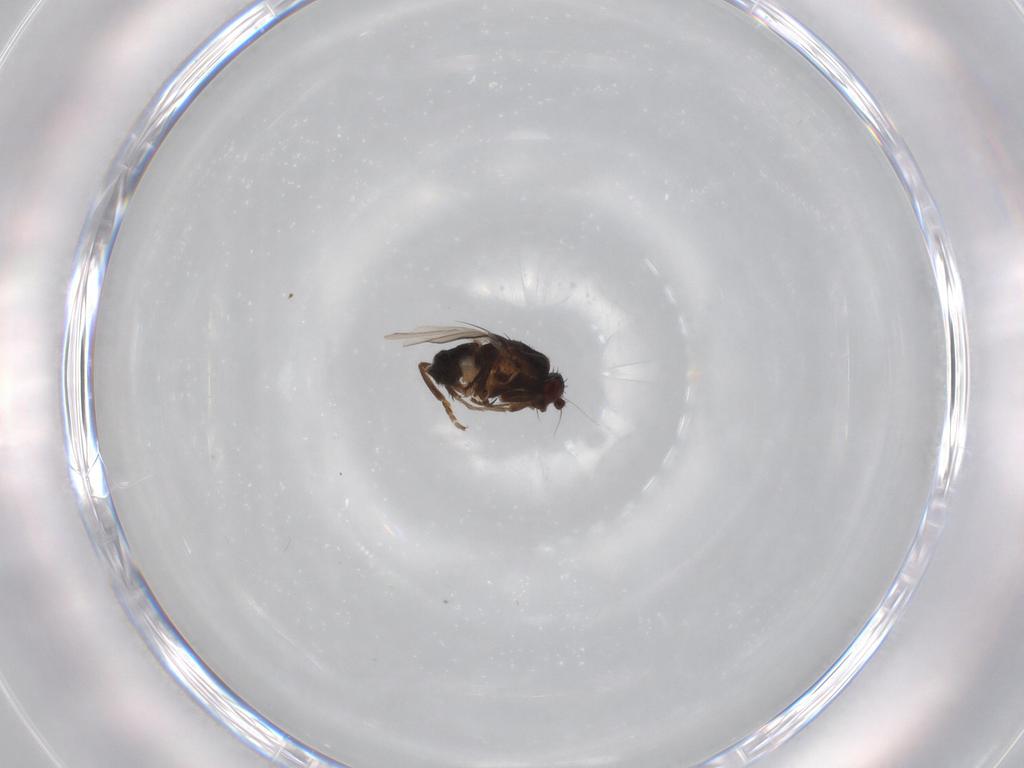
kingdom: Animalia
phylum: Arthropoda
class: Insecta
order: Diptera
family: Sphaeroceridae
